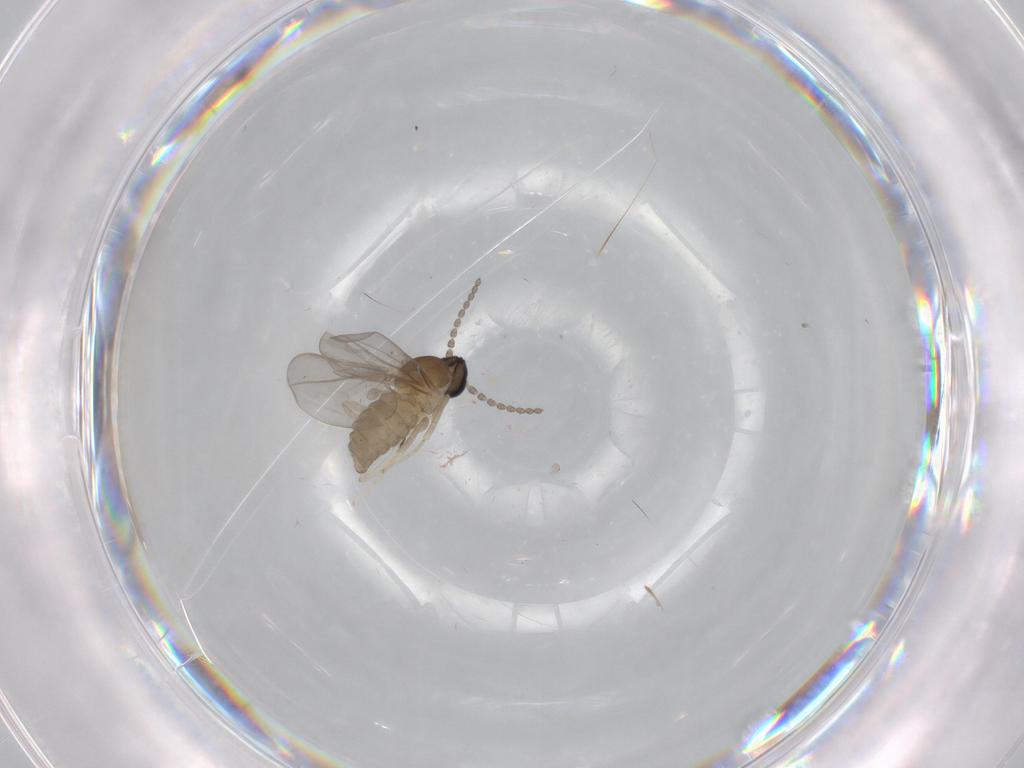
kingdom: Animalia
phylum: Arthropoda
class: Insecta
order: Diptera
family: Cecidomyiidae
